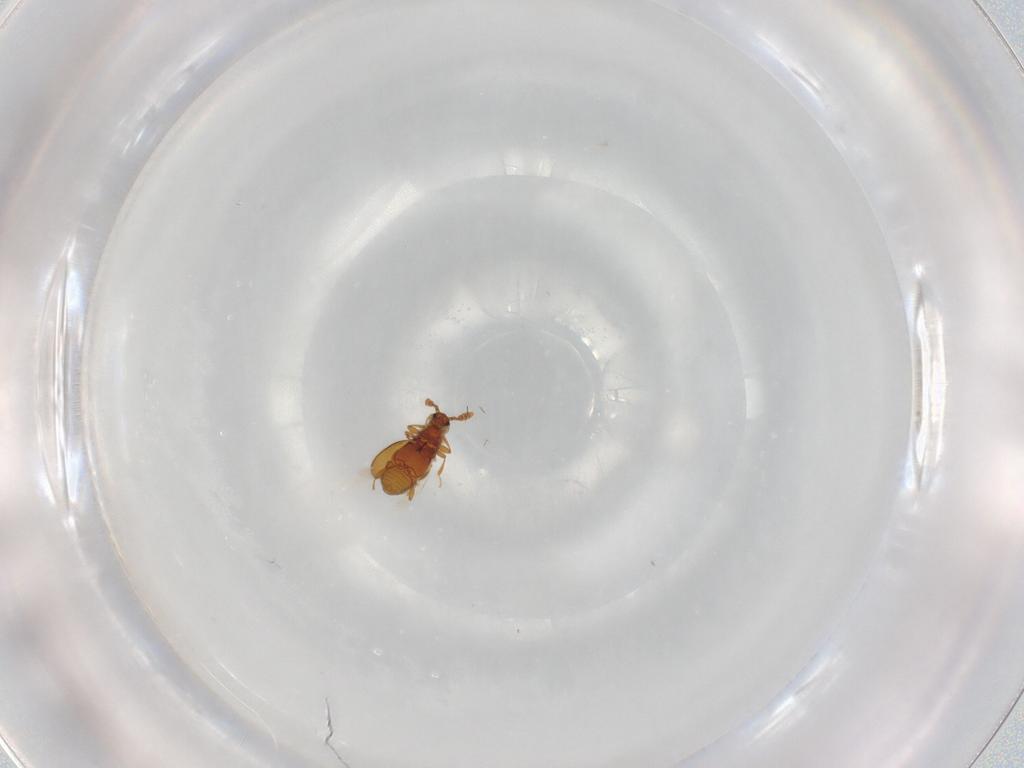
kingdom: Animalia
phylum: Arthropoda
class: Insecta
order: Coleoptera
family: Staphylinidae
